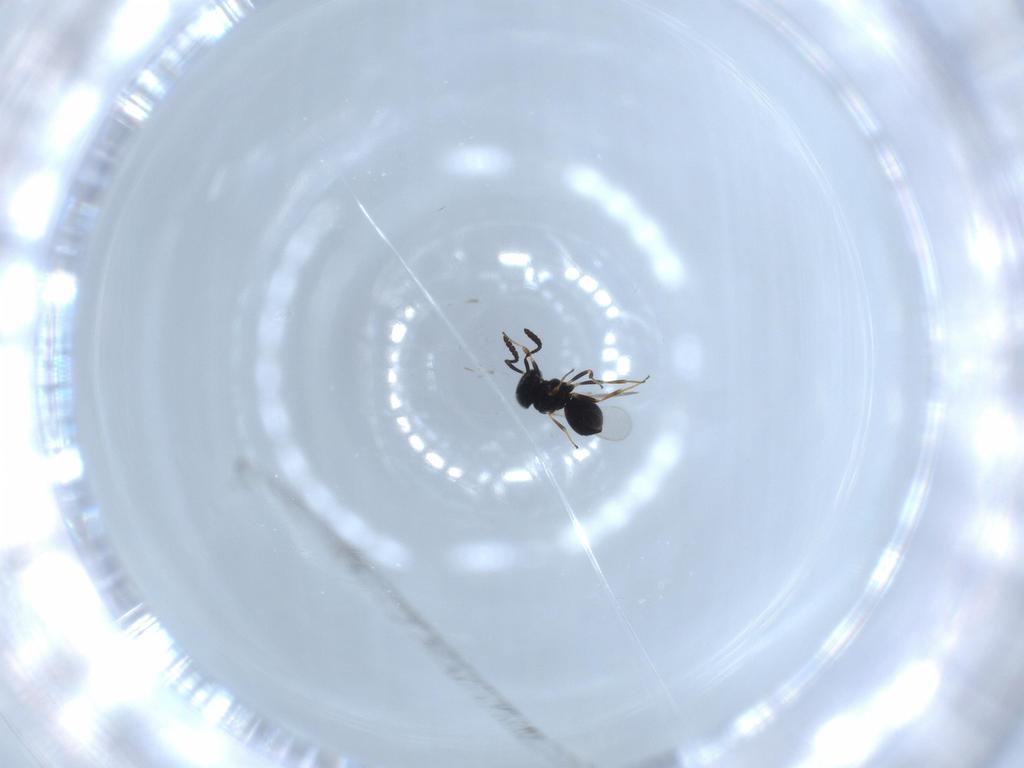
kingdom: Animalia
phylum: Arthropoda
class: Insecta
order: Hymenoptera
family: Scelionidae
